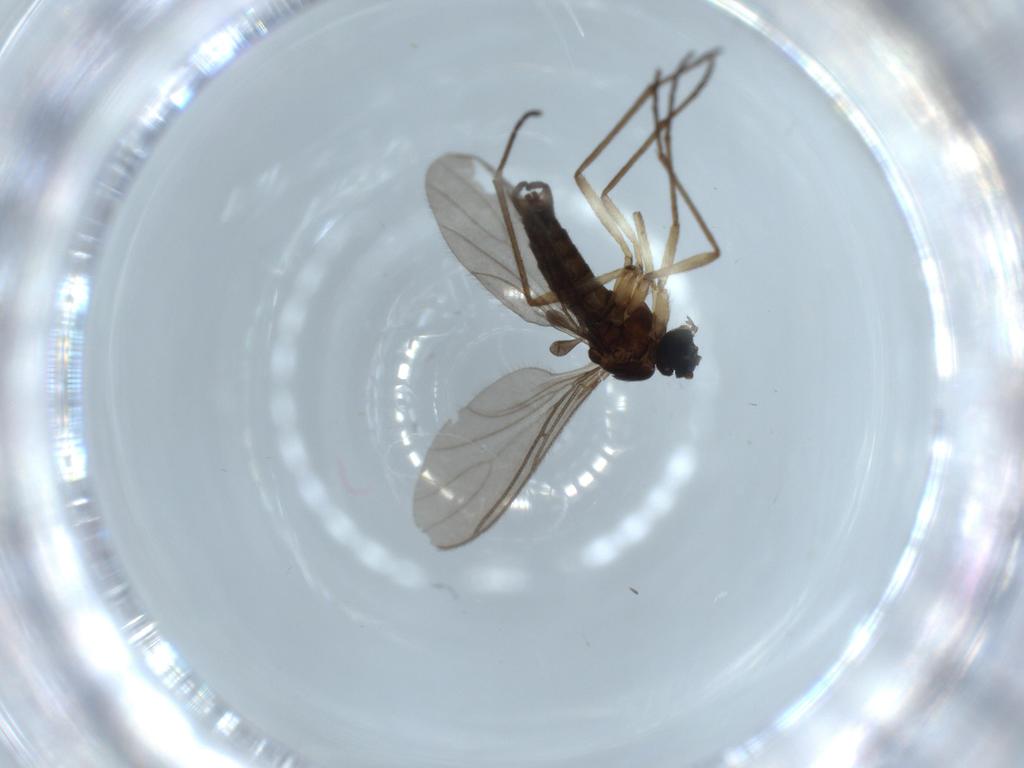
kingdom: Animalia
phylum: Arthropoda
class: Insecta
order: Diptera
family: Sciaridae
